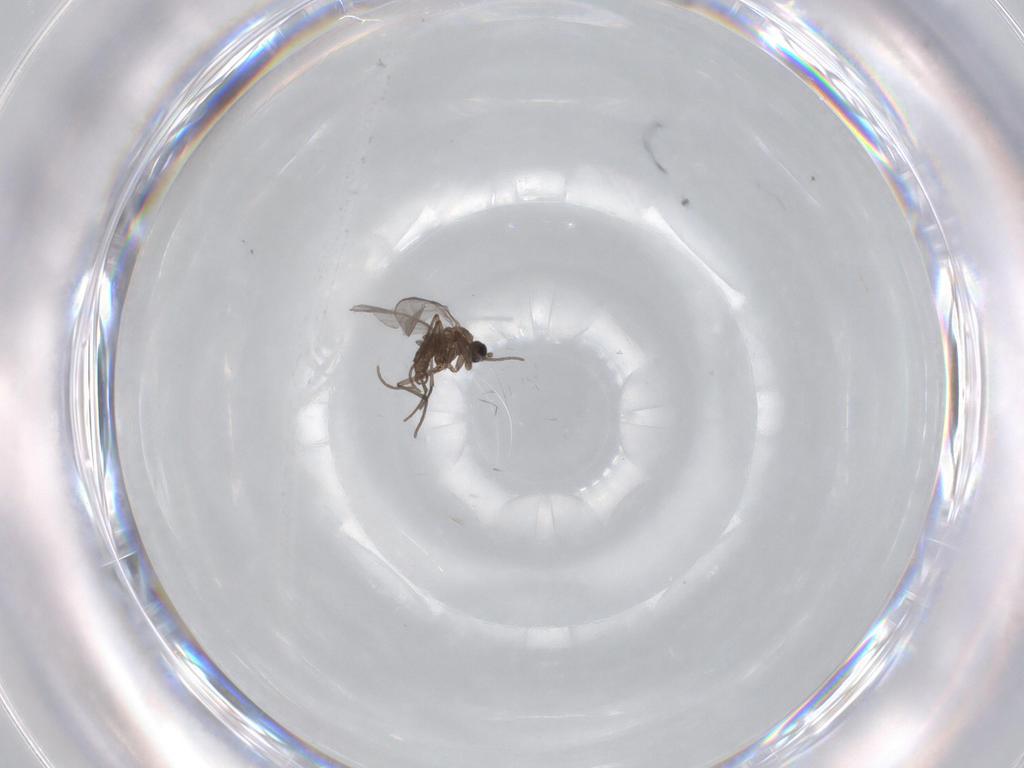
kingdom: Animalia
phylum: Arthropoda
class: Insecta
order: Diptera
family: Sciaridae
